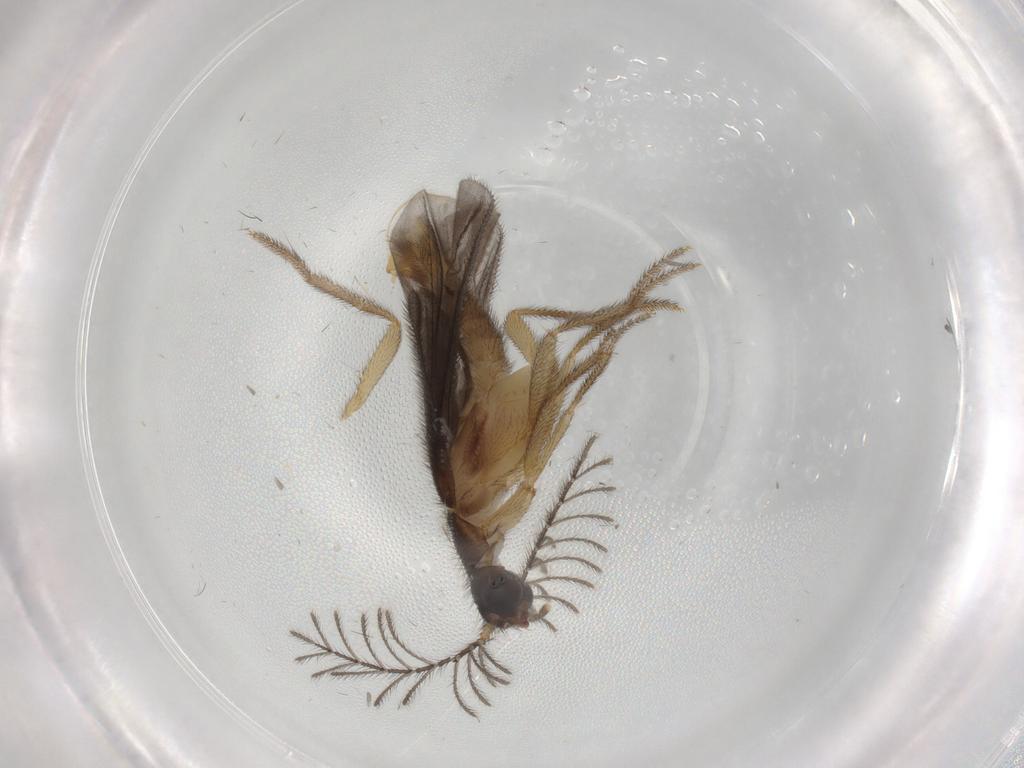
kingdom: Animalia
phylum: Arthropoda
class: Insecta
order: Coleoptera
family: Phengodidae
